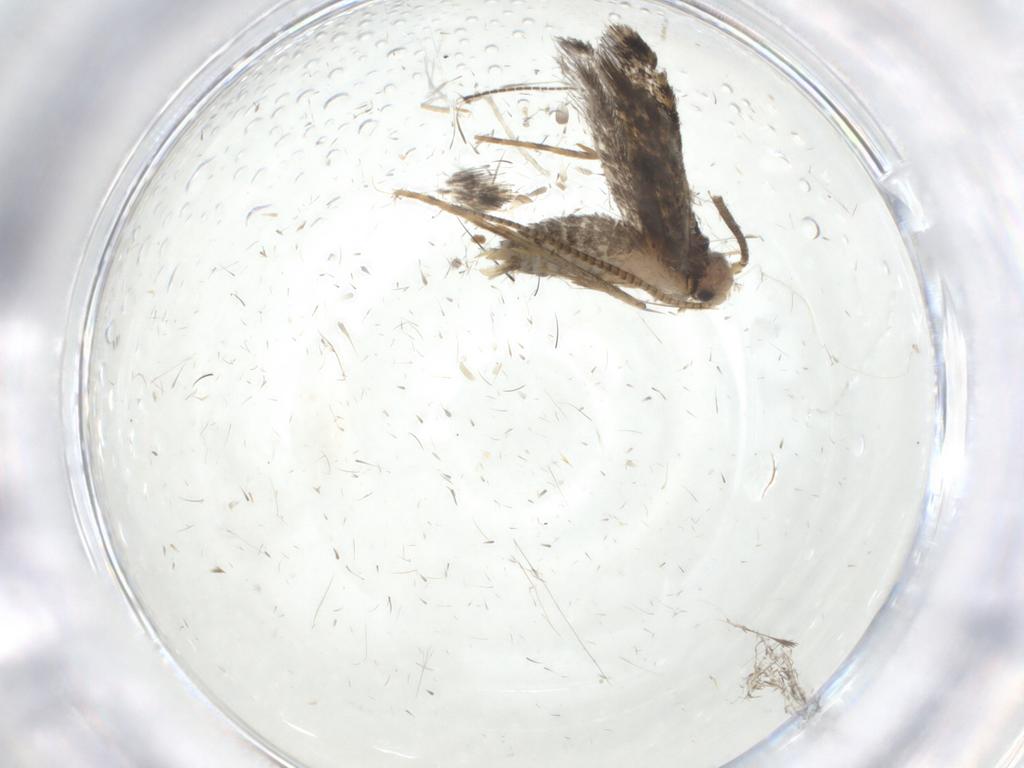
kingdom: Animalia
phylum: Arthropoda
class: Insecta
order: Lepidoptera
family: Tineidae
